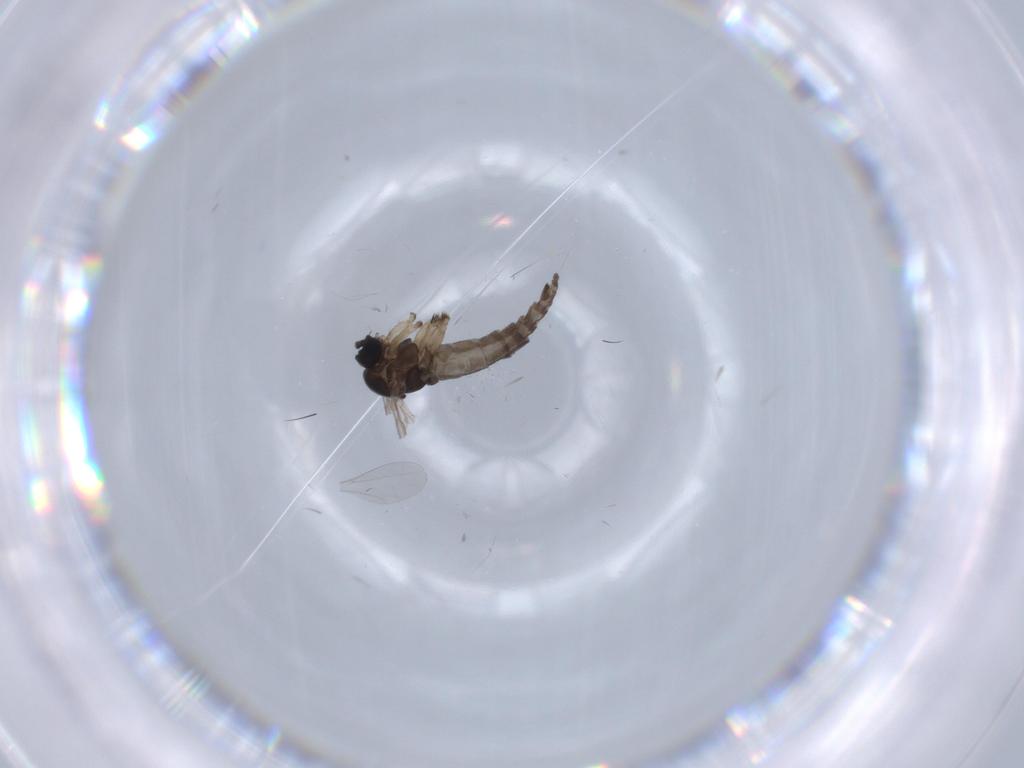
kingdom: Animalia
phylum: Arthropoda
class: Insecta
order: Diptera
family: Sciaridae
